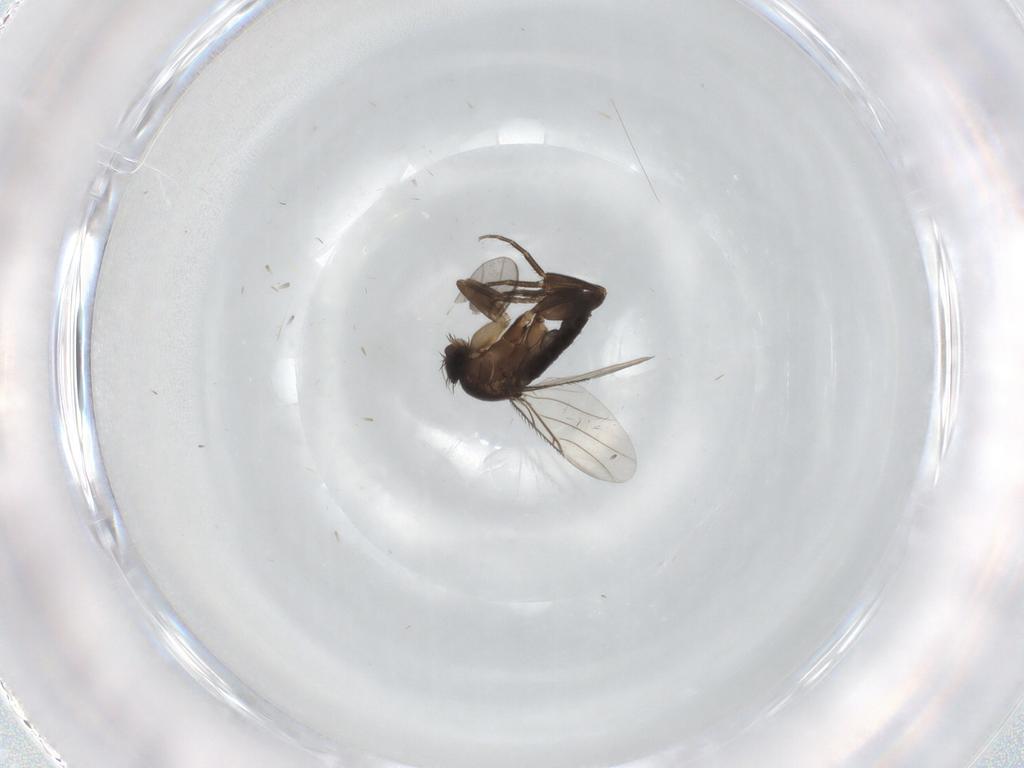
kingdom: Animalia
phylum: Arthropoda
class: Insecta
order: Diptera
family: Phoridae
